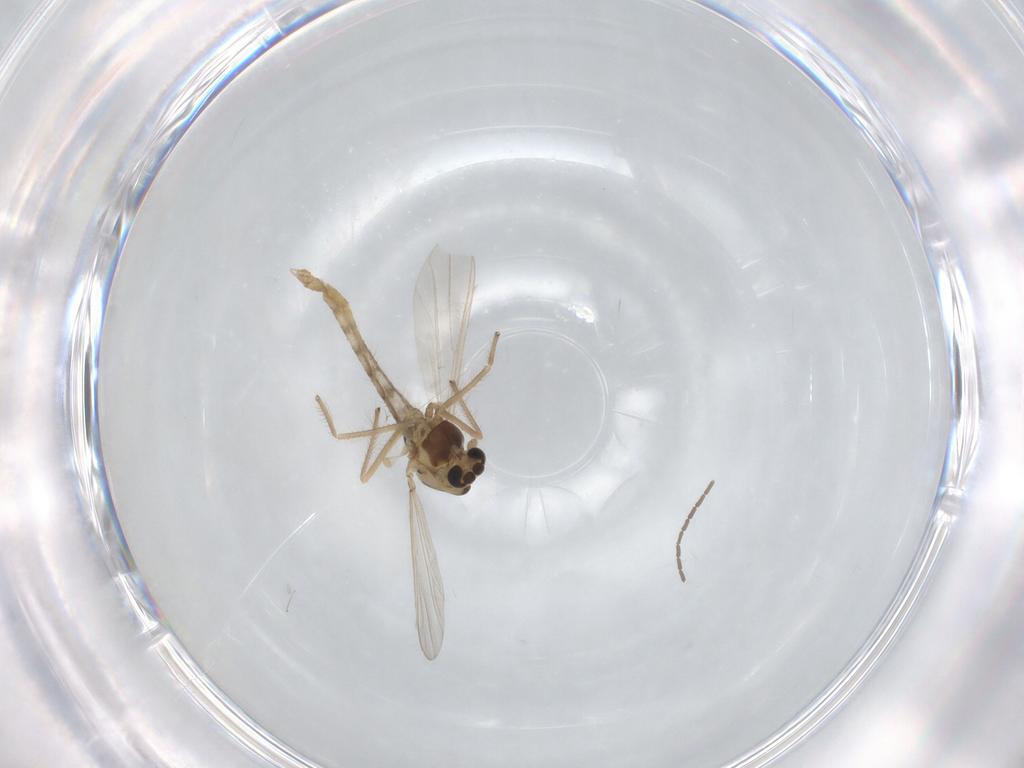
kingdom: Animalia
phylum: Arthropoda
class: Insecta
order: Diptera
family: Chironomidae
